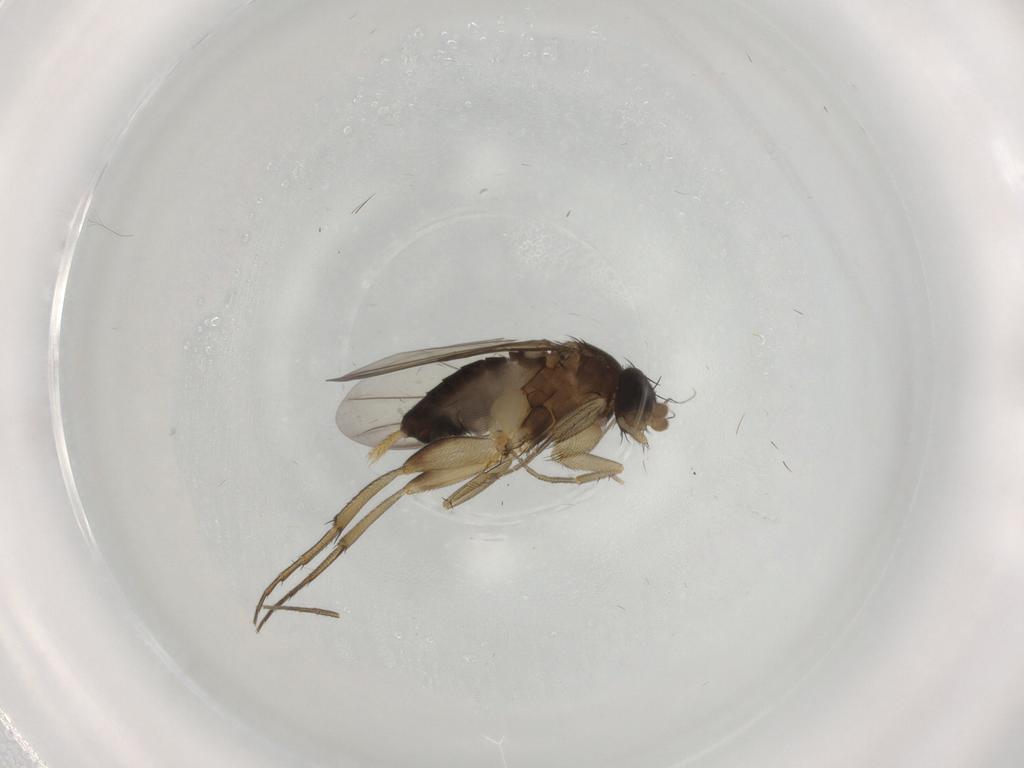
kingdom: Animalia
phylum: Arthropoda
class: Insecta
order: Diptera
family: Phoridae
